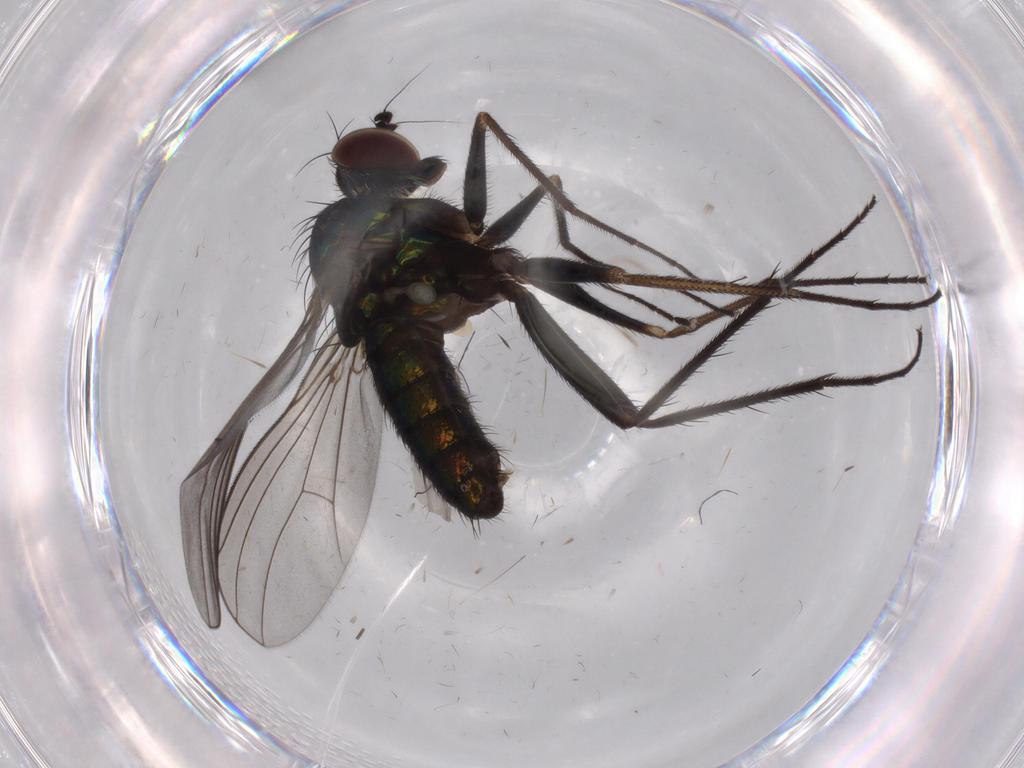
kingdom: Animalia
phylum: Arthropoda
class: Insecta
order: Diptera
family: Dolichopodidae
